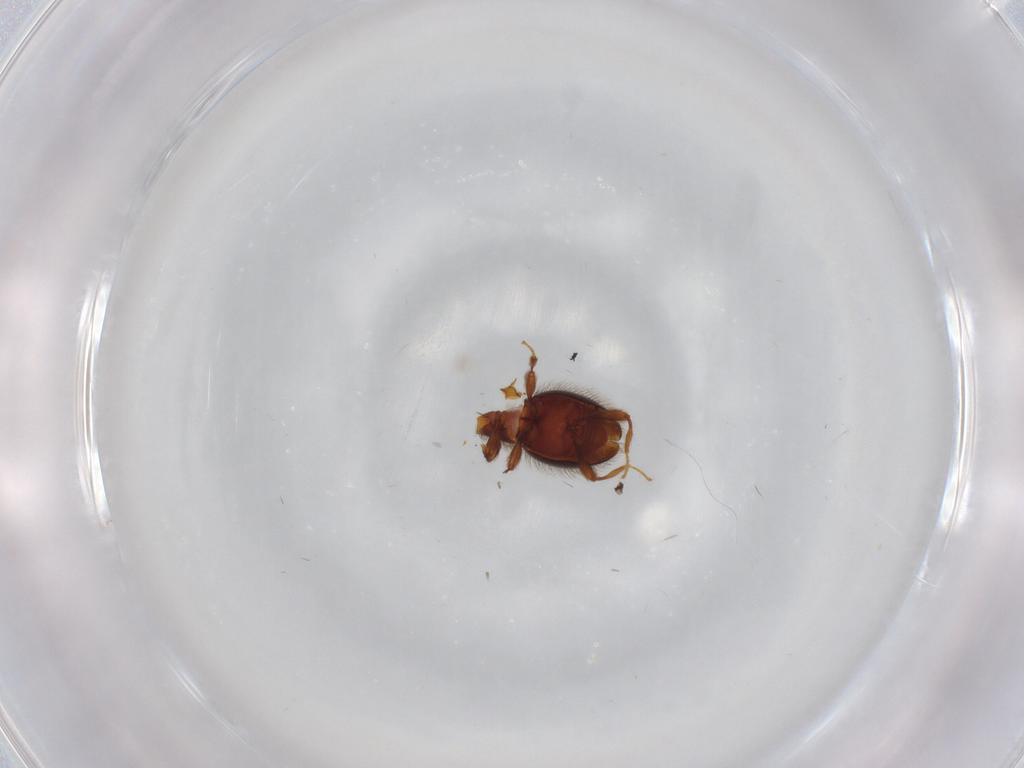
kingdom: Animalia
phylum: Arthropoda
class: Insecta
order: Coleoptera
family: Staphylinidae
